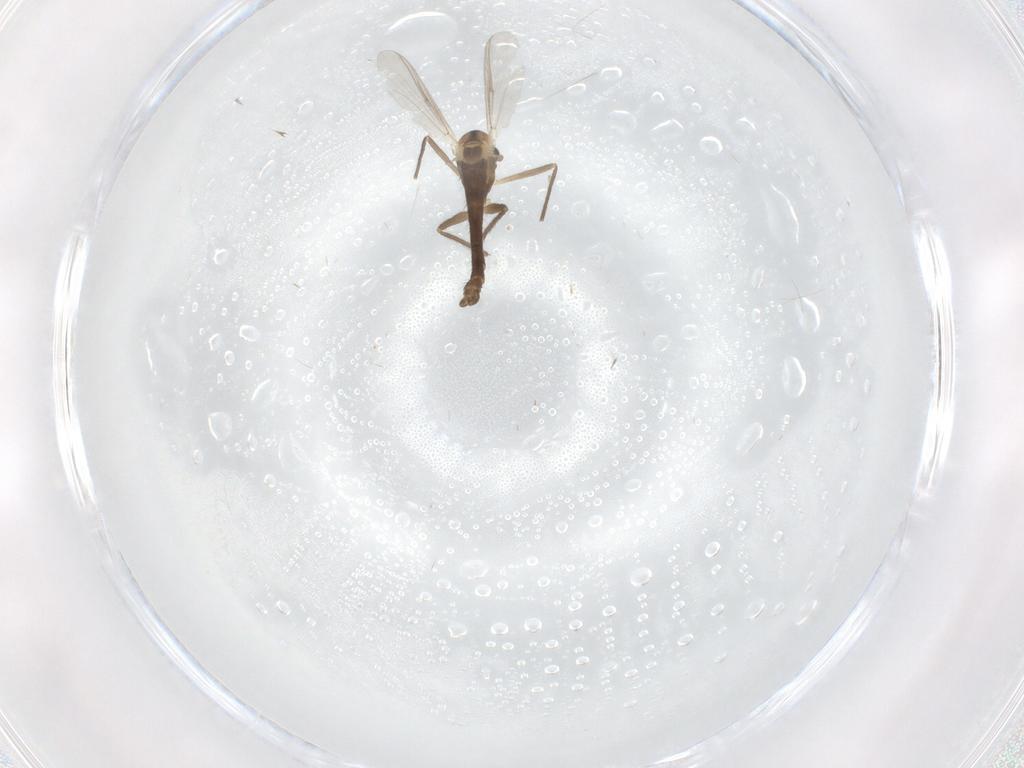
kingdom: Animalia
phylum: Arthropoda
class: Insecta
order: Diptera
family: Chironomidae
